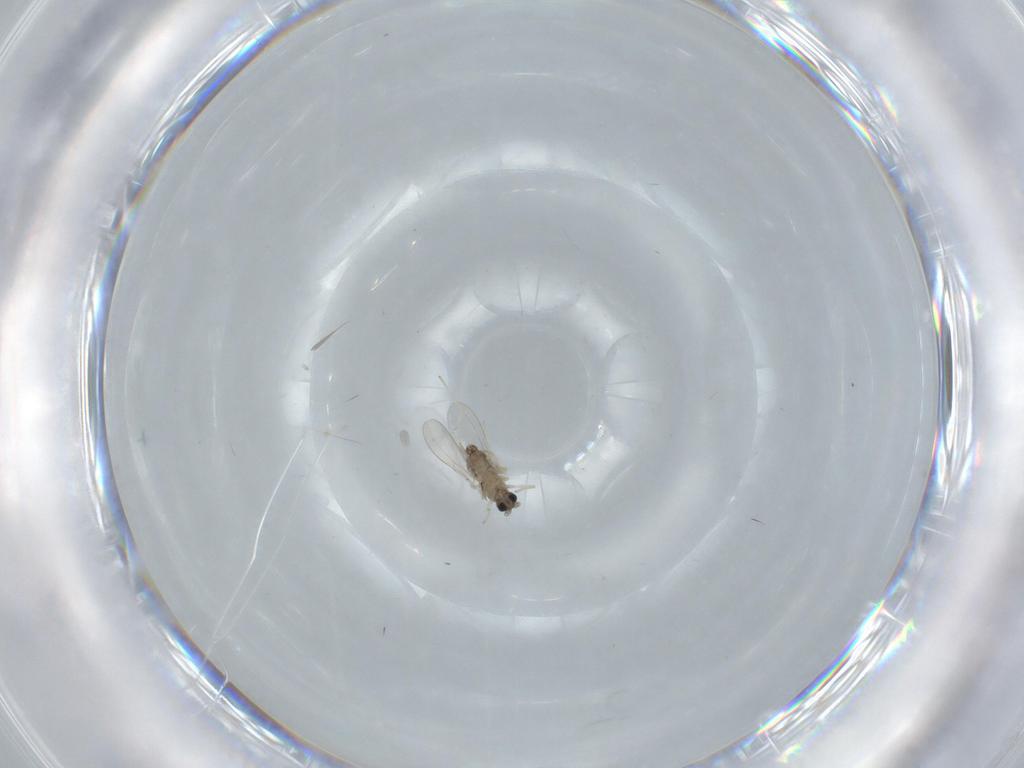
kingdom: Animalia
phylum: Arthropoda
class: Insecta
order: Diptera
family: Cecidomyiidae
